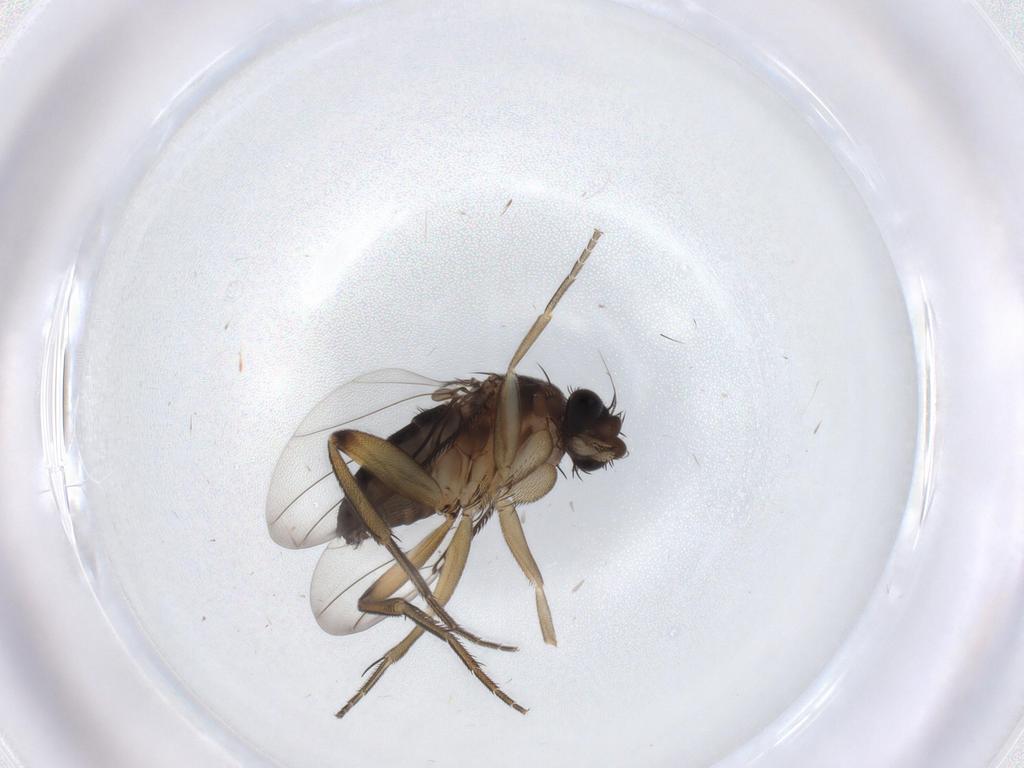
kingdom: Animalia
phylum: Arthropoda
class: Insecta
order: Diptera
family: Phoridae
